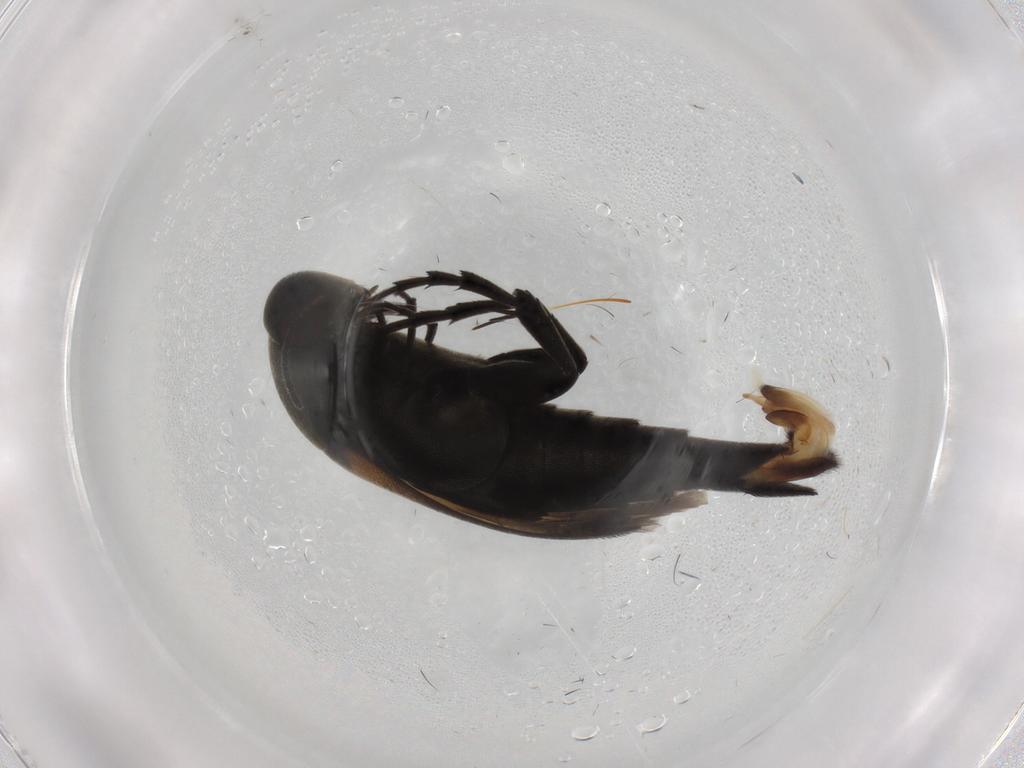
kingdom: Animalia
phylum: Arthropoda
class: Insecta
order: Coleoptera
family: Mordellidae
